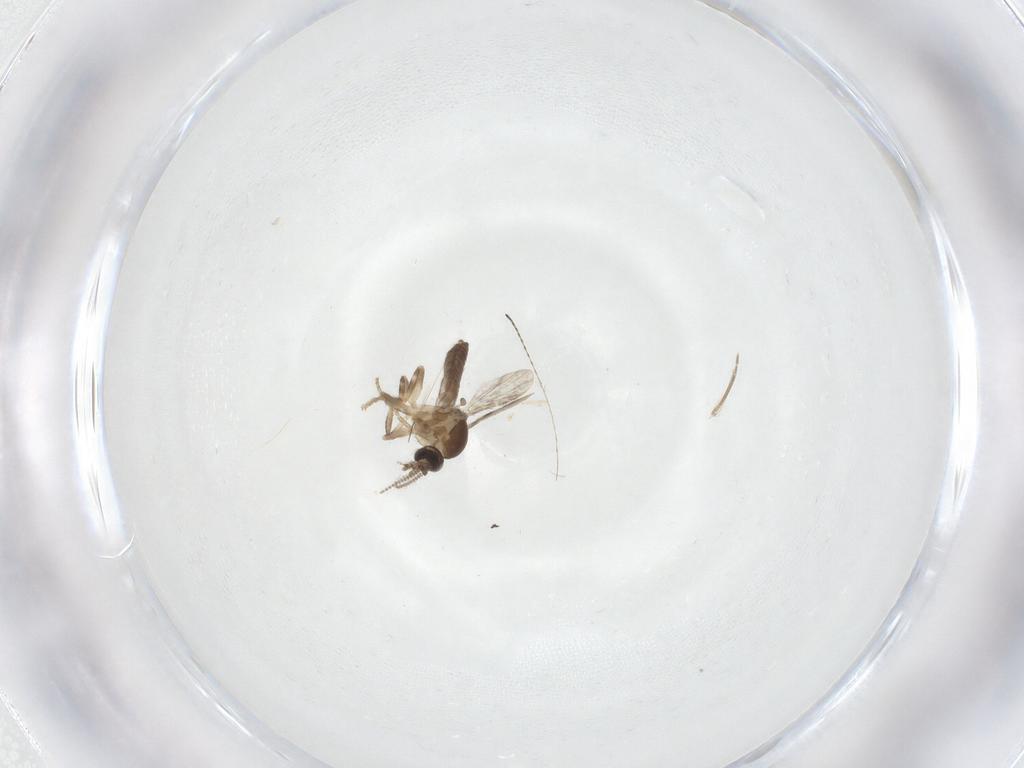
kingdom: Animalia
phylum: Arthropoda
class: Insecta
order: Diptera
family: Ceratopogonidae
